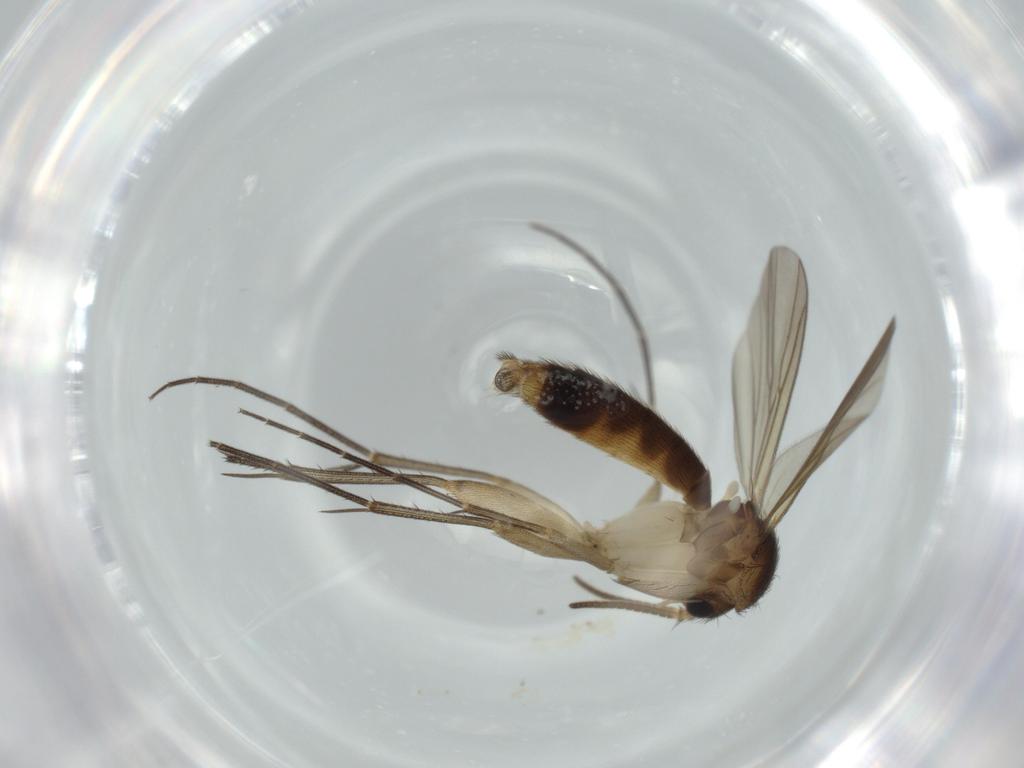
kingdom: Animalia
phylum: Arthropoda
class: Insecta
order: Diptera
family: Mycetophilidae
